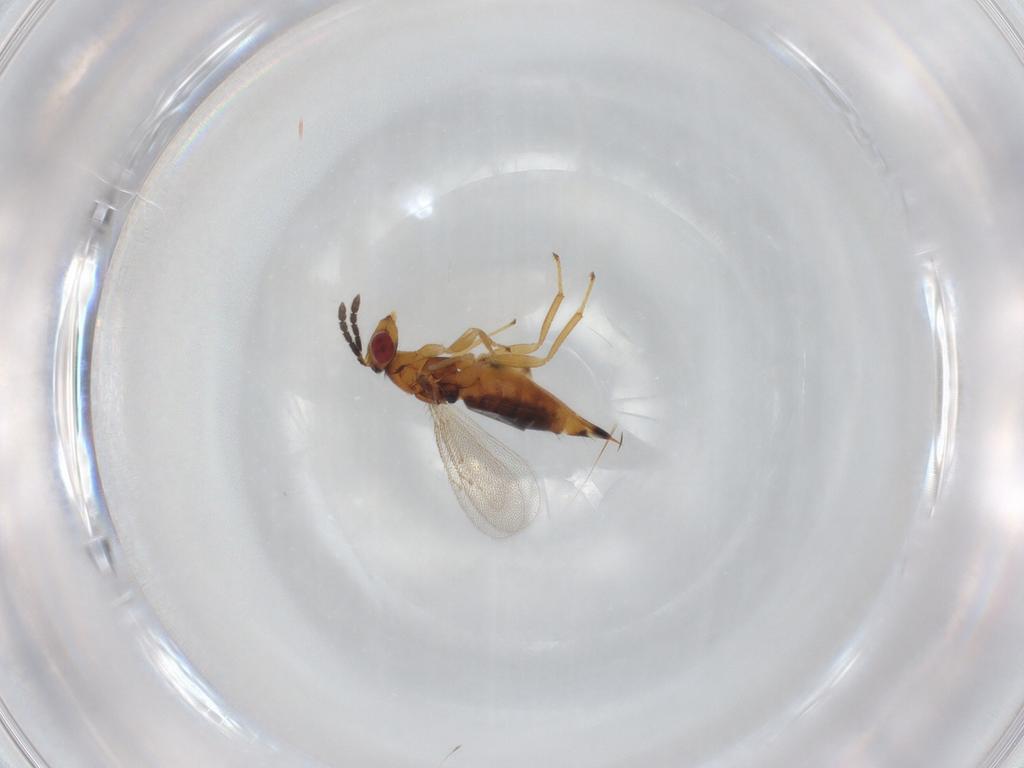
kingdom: Animalia
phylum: Arthropoda
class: Insecta
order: Hymenoptera
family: Eulophidae
